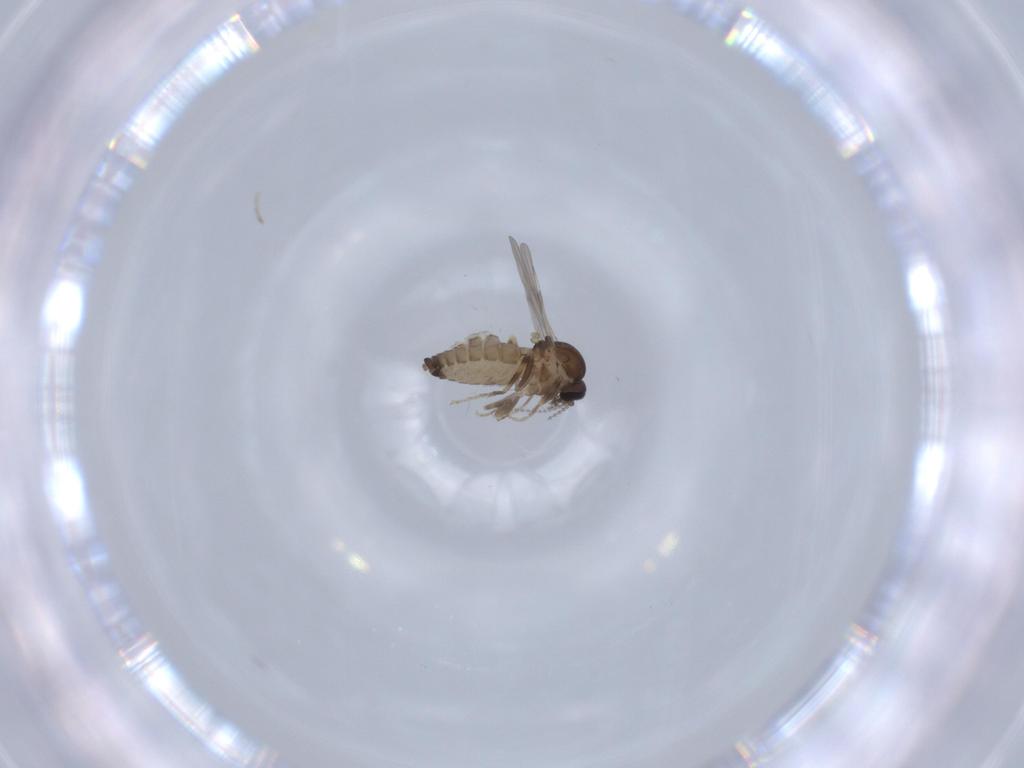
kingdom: Animalia
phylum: Arthropoda
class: Insecta
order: Diptera
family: Ceratopogonidae
